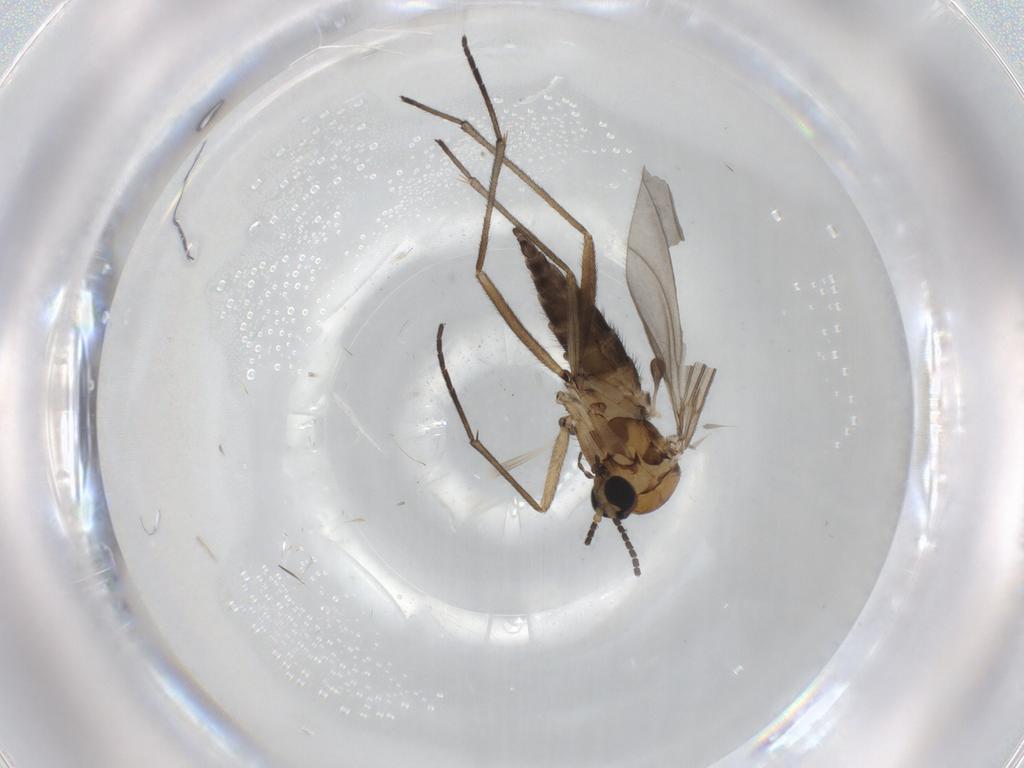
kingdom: Animalia
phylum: Arthropoda
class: Insecta
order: Diptera
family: Sciaridae
